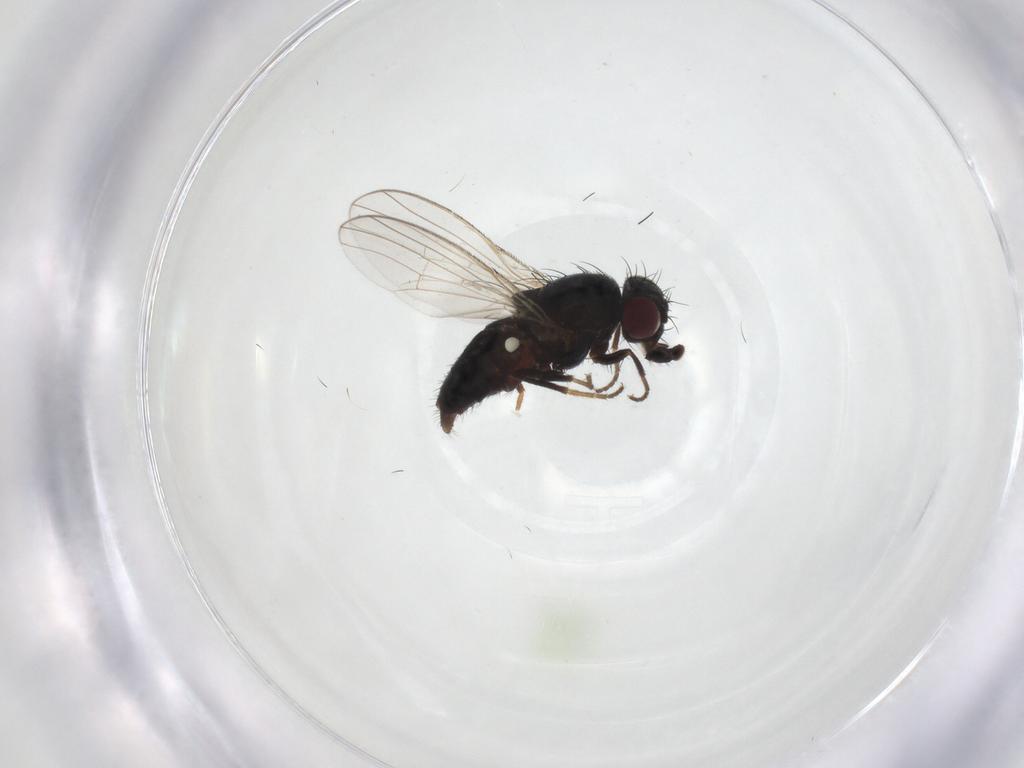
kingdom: Animalia
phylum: Arthropoda
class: Insecta
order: Diptera
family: Carnidae
